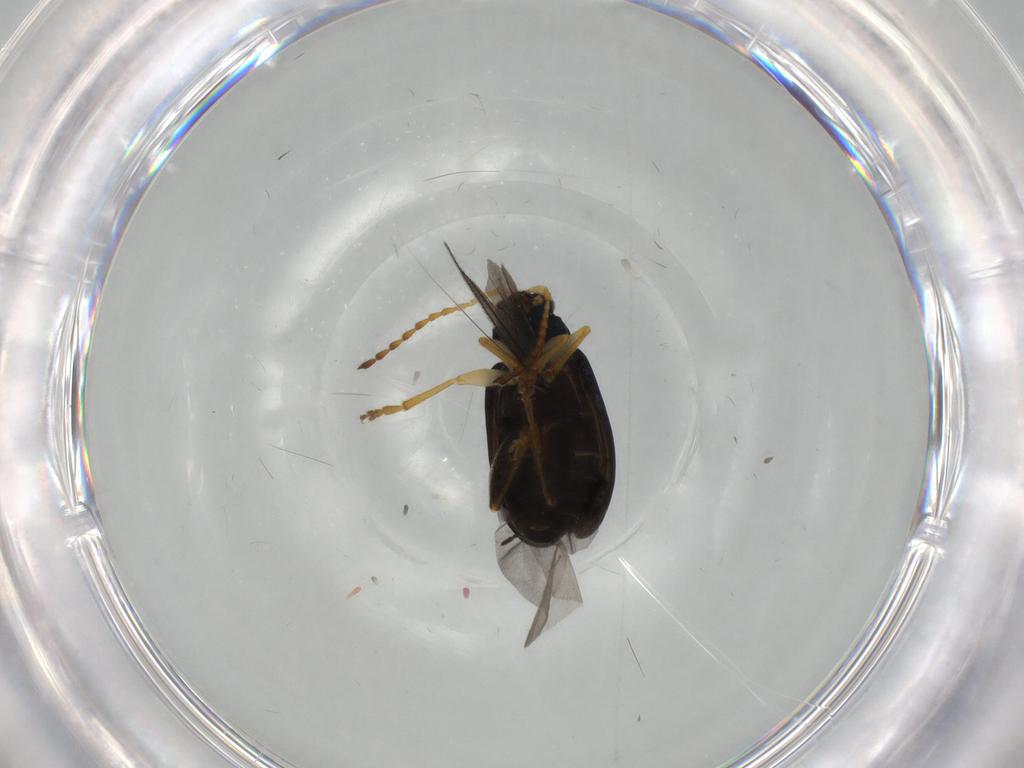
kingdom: Animalia
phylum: Arthropoda
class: Insecta
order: Coleoptera
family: Chrysomelidae
